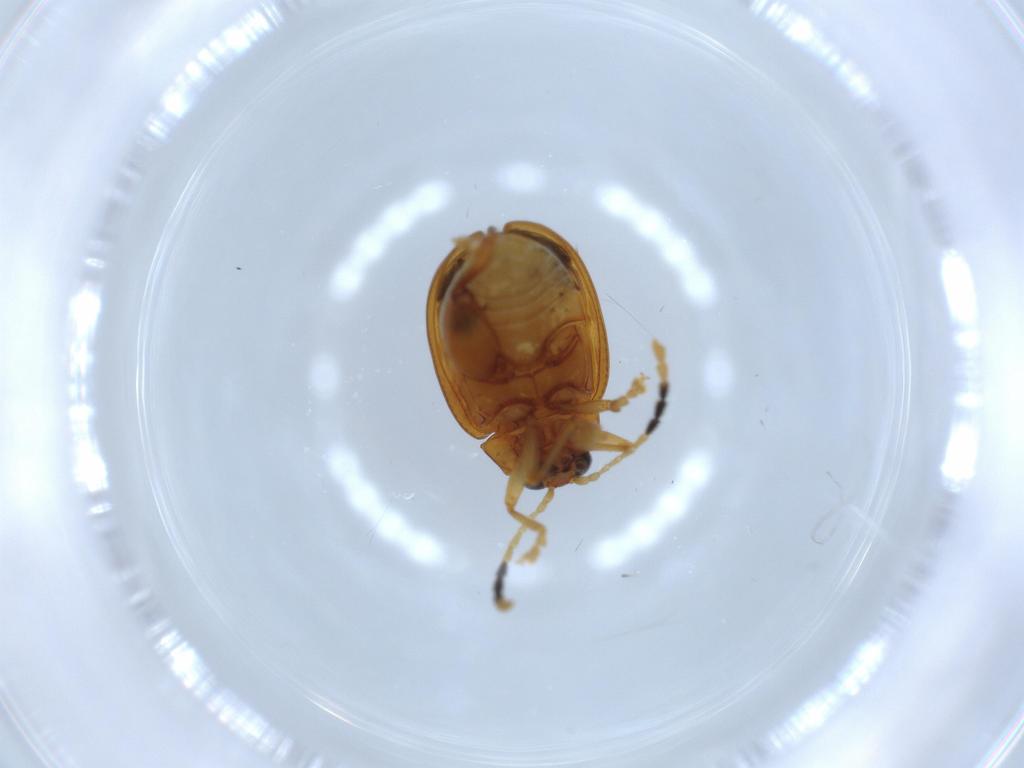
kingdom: Animalia
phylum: Arthropoda
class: Insecta
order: Coleoptera
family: Chrysomelidae
